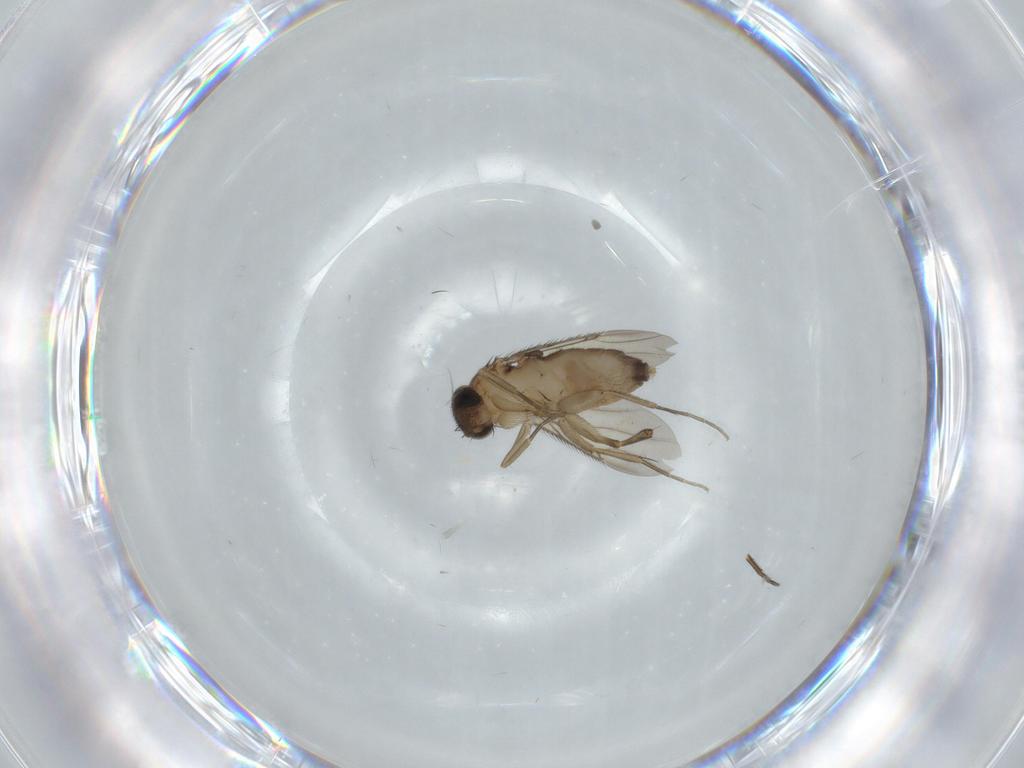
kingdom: Animalia
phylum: Arthropoda
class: Insecta
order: Diptera
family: Phoridae
